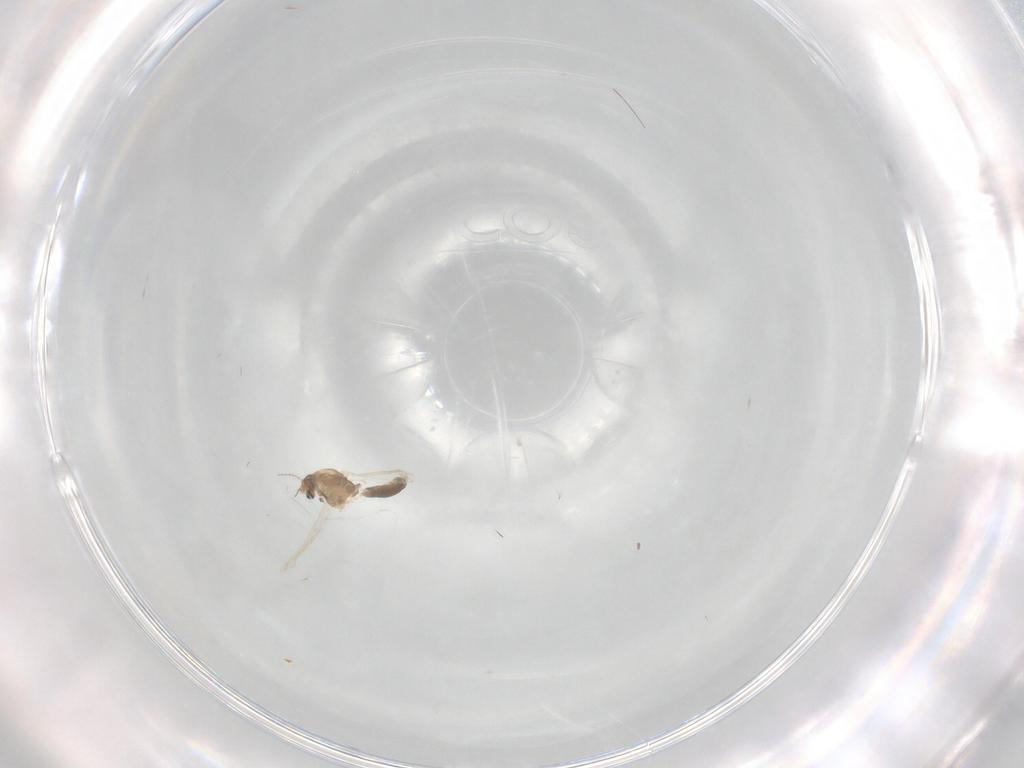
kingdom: Animalia
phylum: Arthropoda
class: Insecta
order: Diptera
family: Chironomidae
